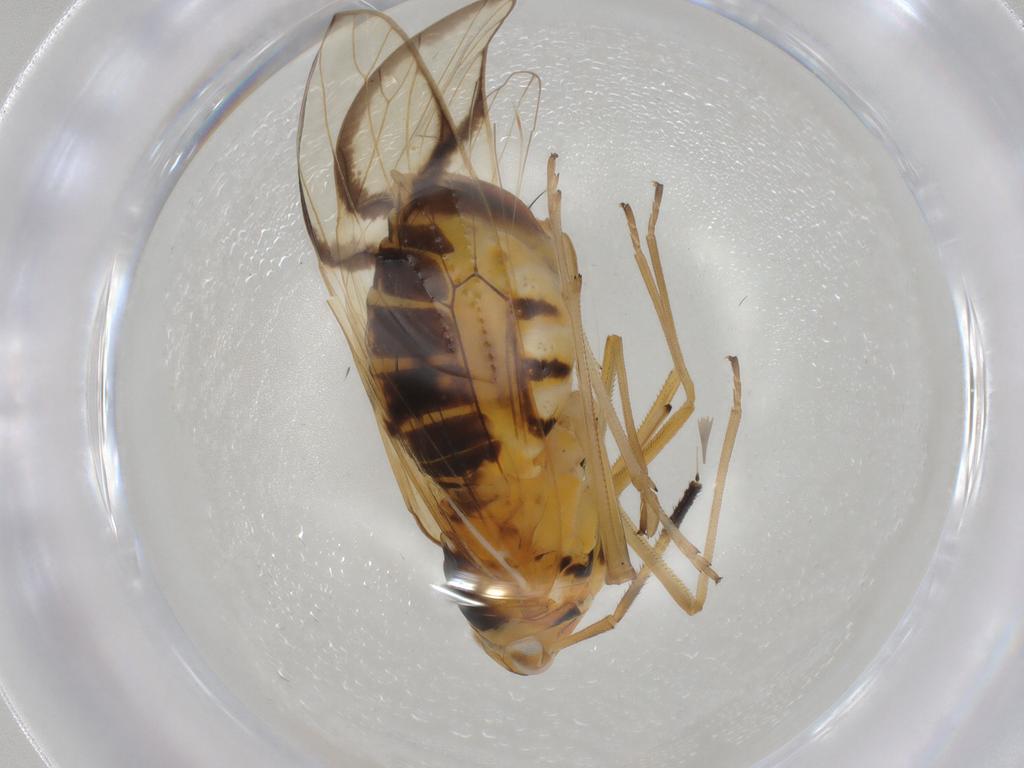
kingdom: Animalia
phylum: Arthropoda
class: Insecta
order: Hemiptera
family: Delphacidae
